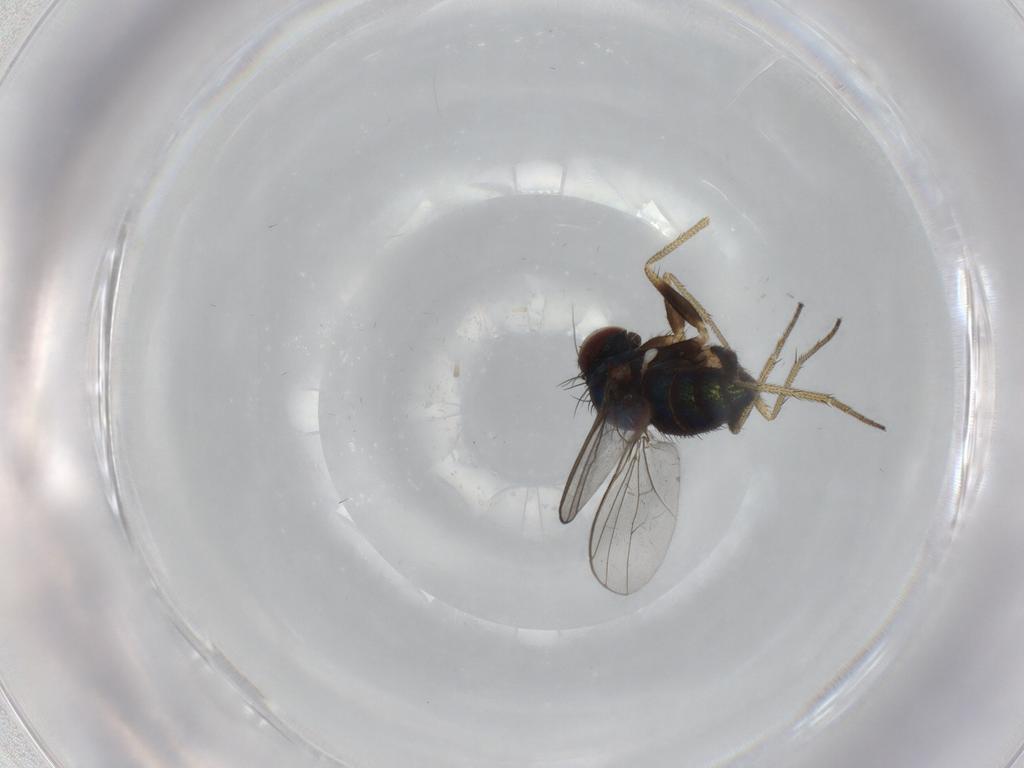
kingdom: Animalia
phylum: Arthropoda
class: Insecta
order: Diptera
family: Dolichopodidae
